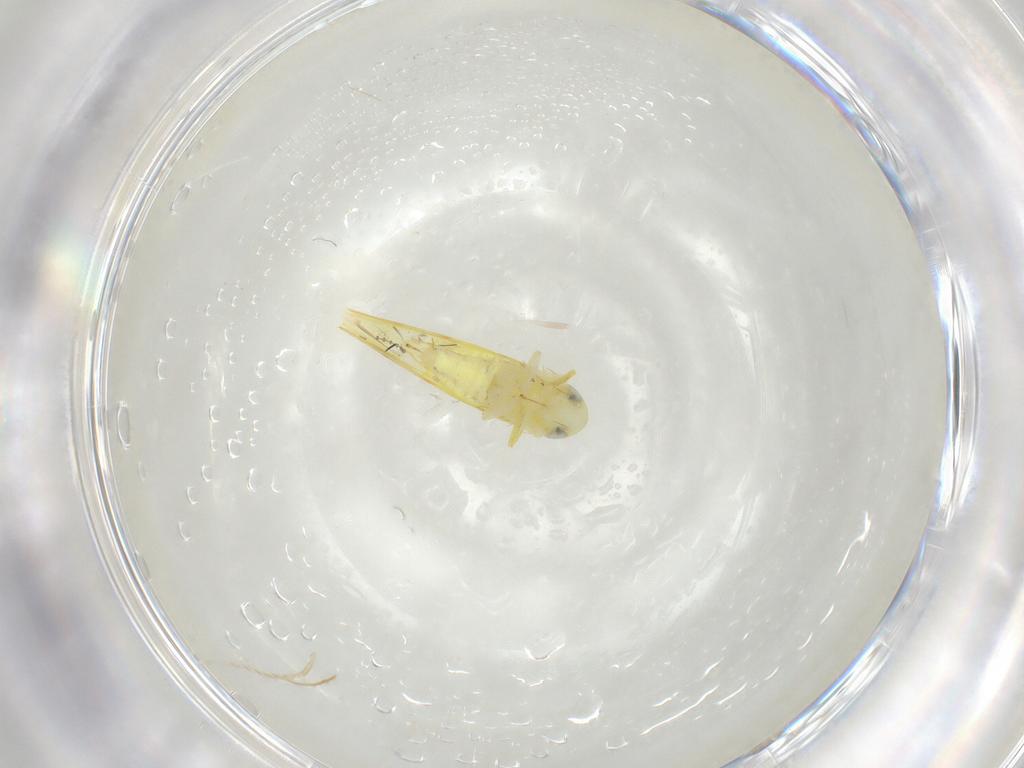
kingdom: Animalia
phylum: Arthropoda
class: Insecta
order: Hemiptera
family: Cicadellidae
